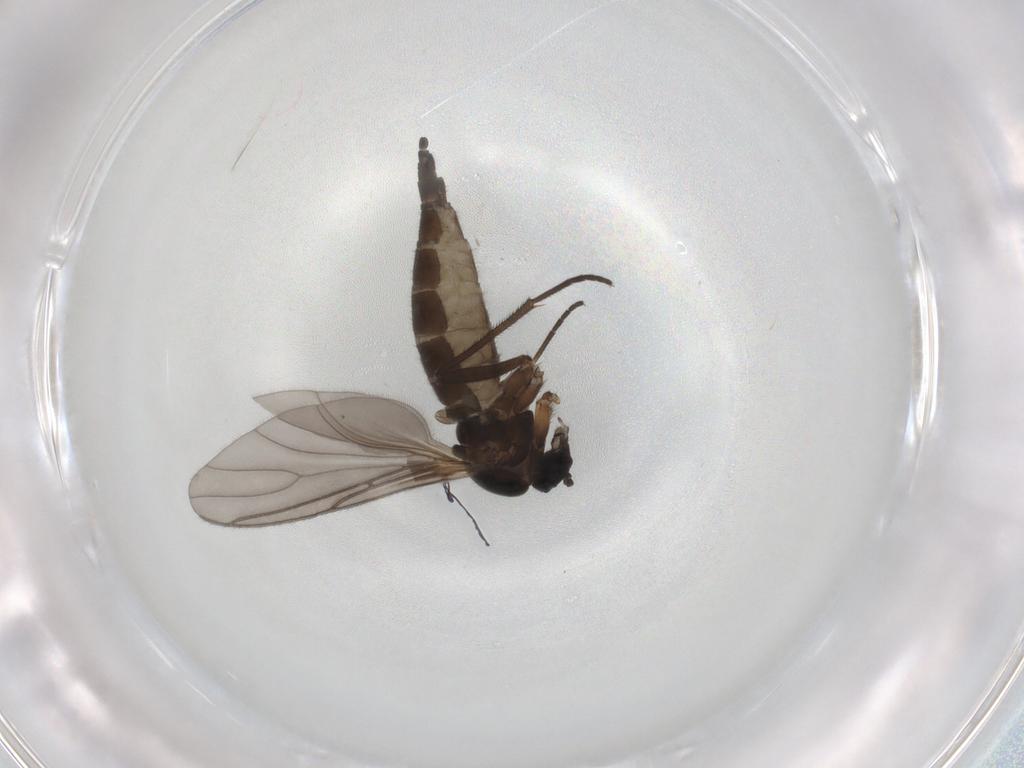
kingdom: Animalia
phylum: Arthropoda
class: Insecta
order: Diptera
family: Sciaridae
